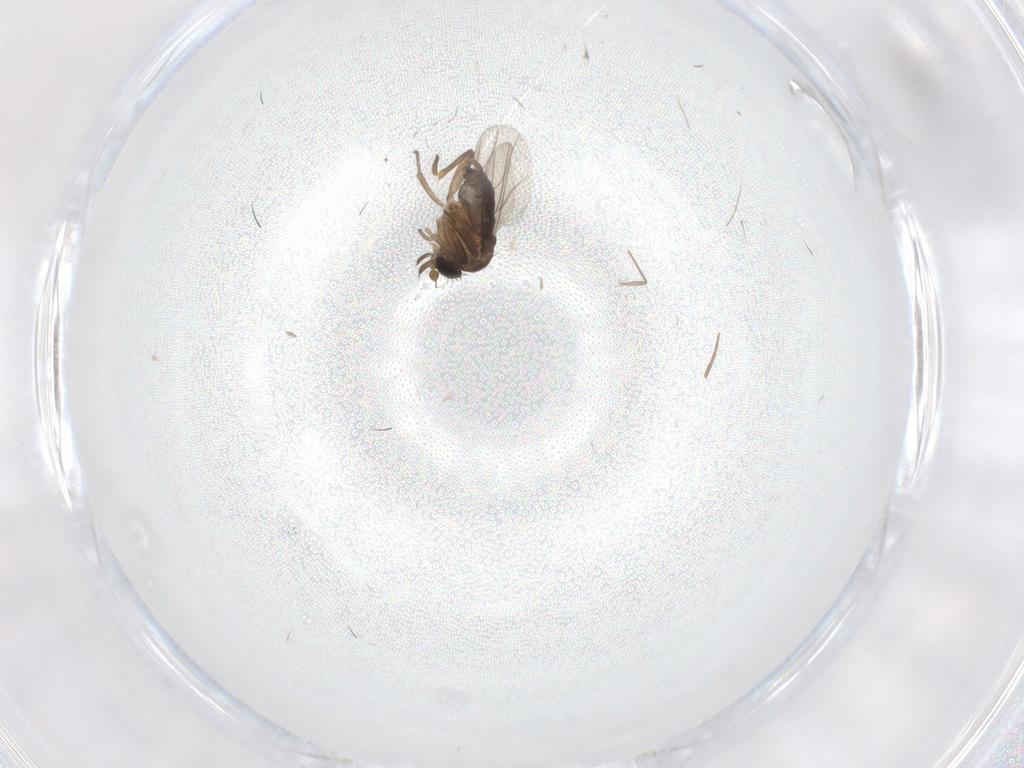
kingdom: Animalia
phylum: Arthropoda
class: Insecta
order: Diptera
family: Phoridae
